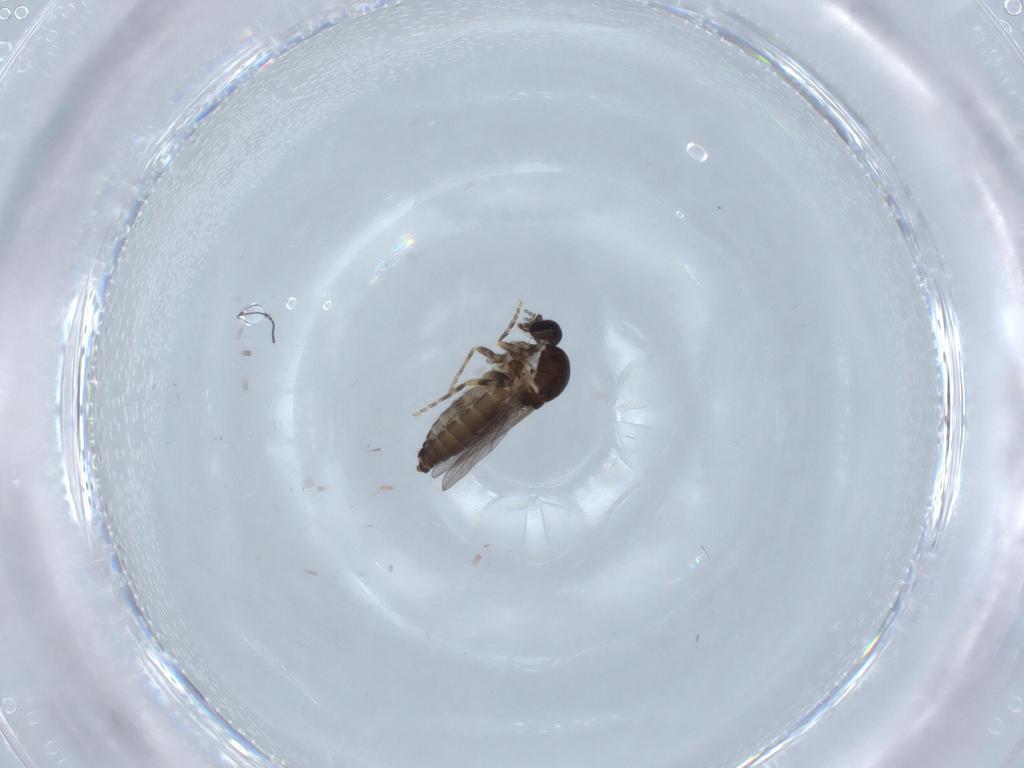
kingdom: Animalia
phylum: Arthropoda
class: Insecta
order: Diptera
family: Ceratopogonidae
